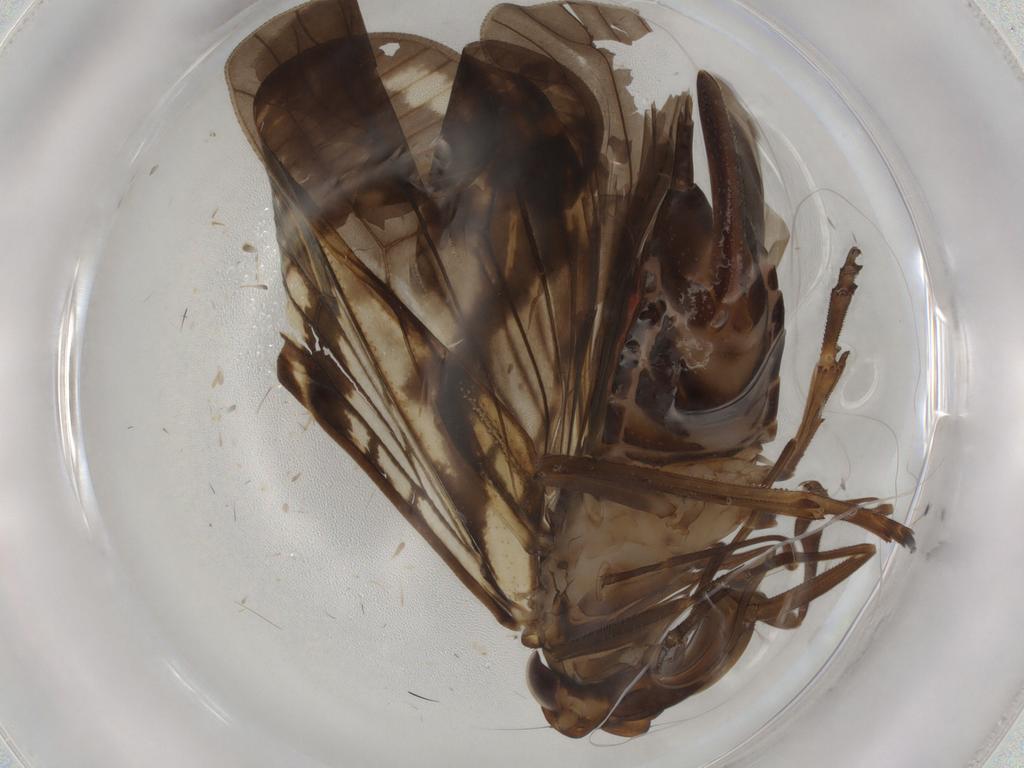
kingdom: Animalia
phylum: Arthropoda
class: Insecta
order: Hemiptera
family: Cixiidae
